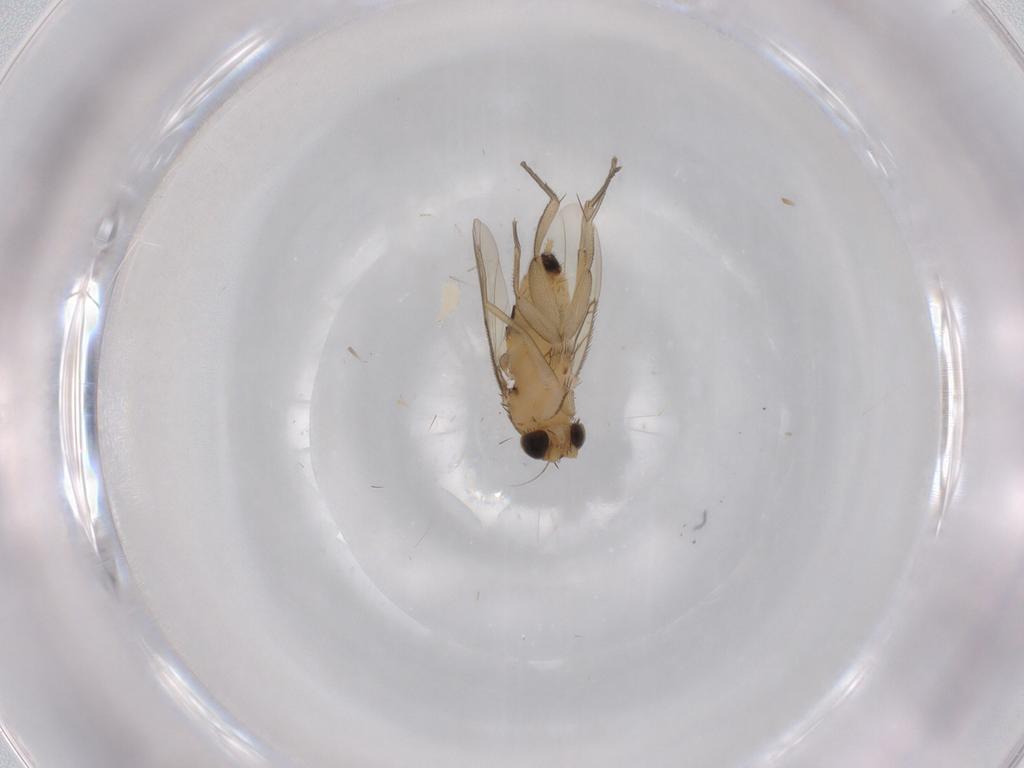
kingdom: Animalia
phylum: Arthropoda
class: Insecta
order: Diptera
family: Phoridae
